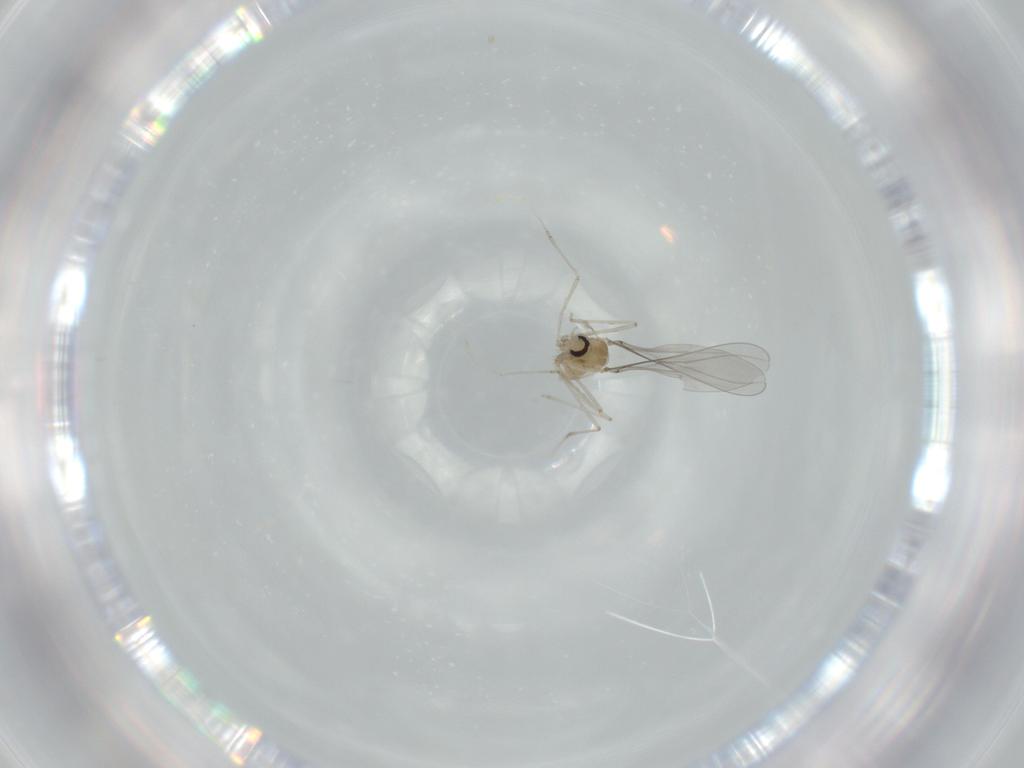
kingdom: Animalia
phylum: Arthropoda
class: Insecta
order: Diptera
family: Cecidomyiidae
